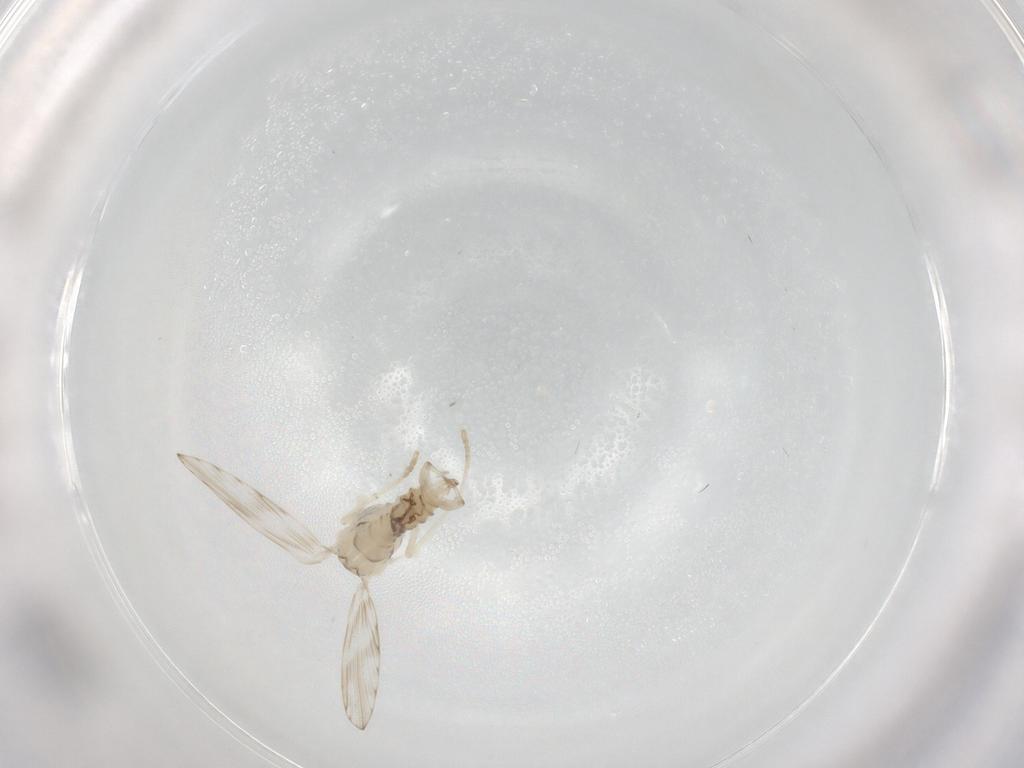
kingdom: Animalia
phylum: Arthropoda
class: Insecta
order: Diptera
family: Psychodidae
